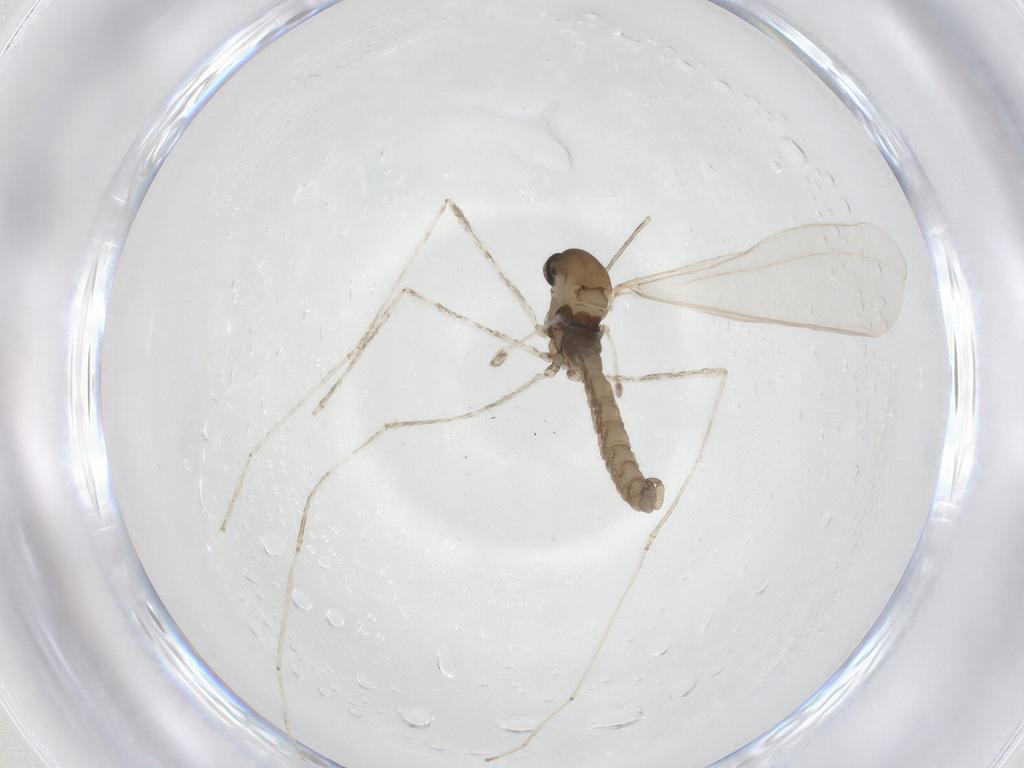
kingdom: Animalia
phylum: Arthropoda
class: Insecta
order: Diptera
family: Cecidomyiidae
